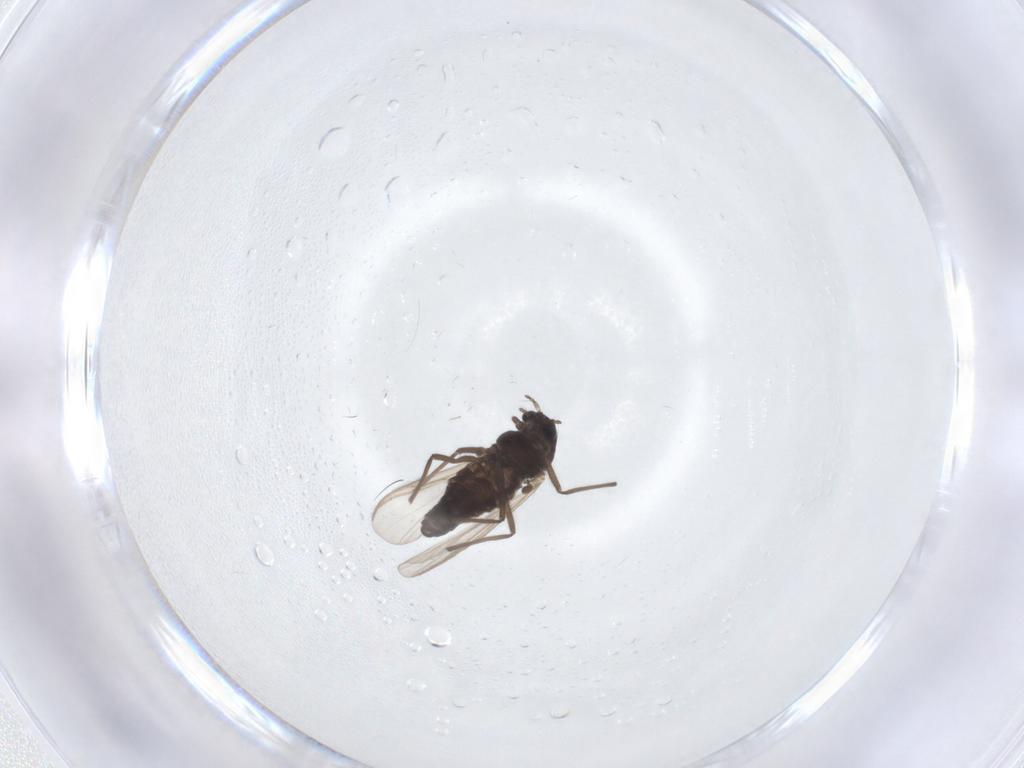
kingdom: Animalia
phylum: Arthropoda
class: Insecta
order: Diptera
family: Chironomidae
